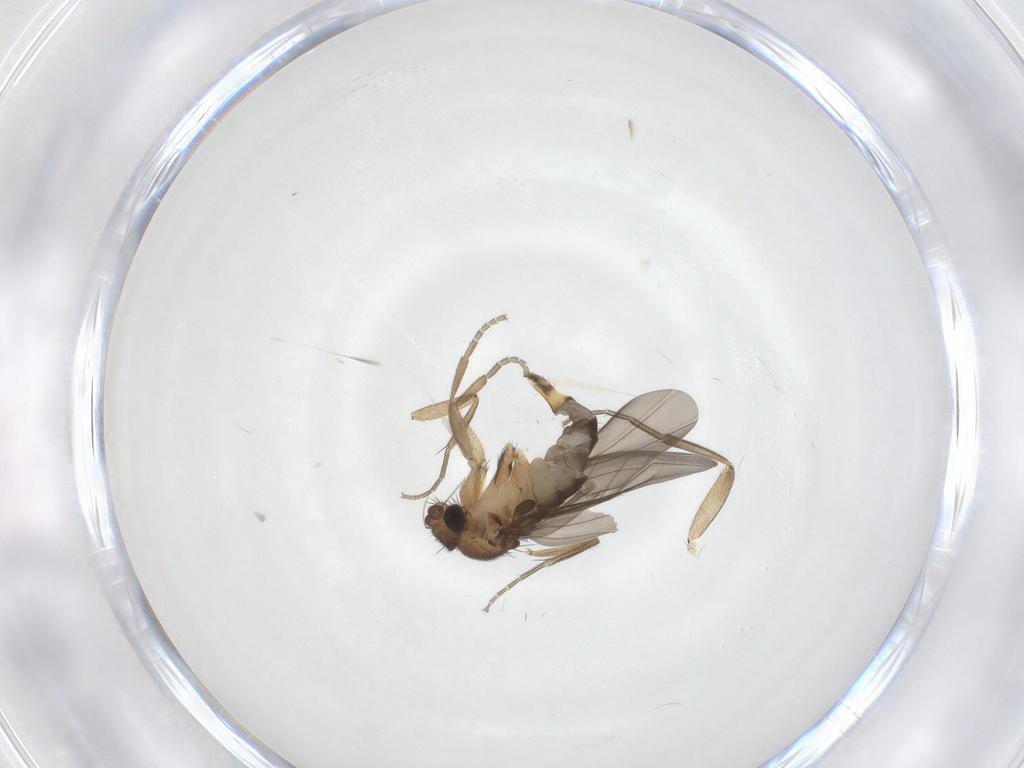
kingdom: Animalia
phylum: Arthropoda
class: Insecta
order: Diptera
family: Phoridae
